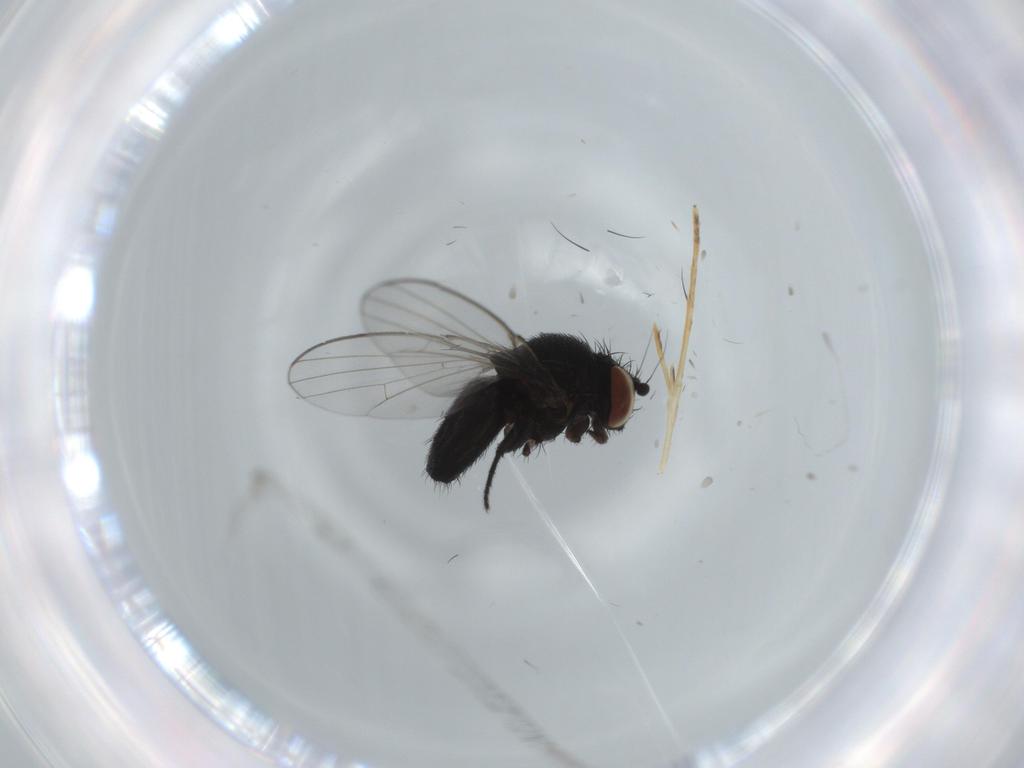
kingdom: Animalia
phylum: Arthropoda
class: Insecta
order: Diptera
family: Milichiidae
